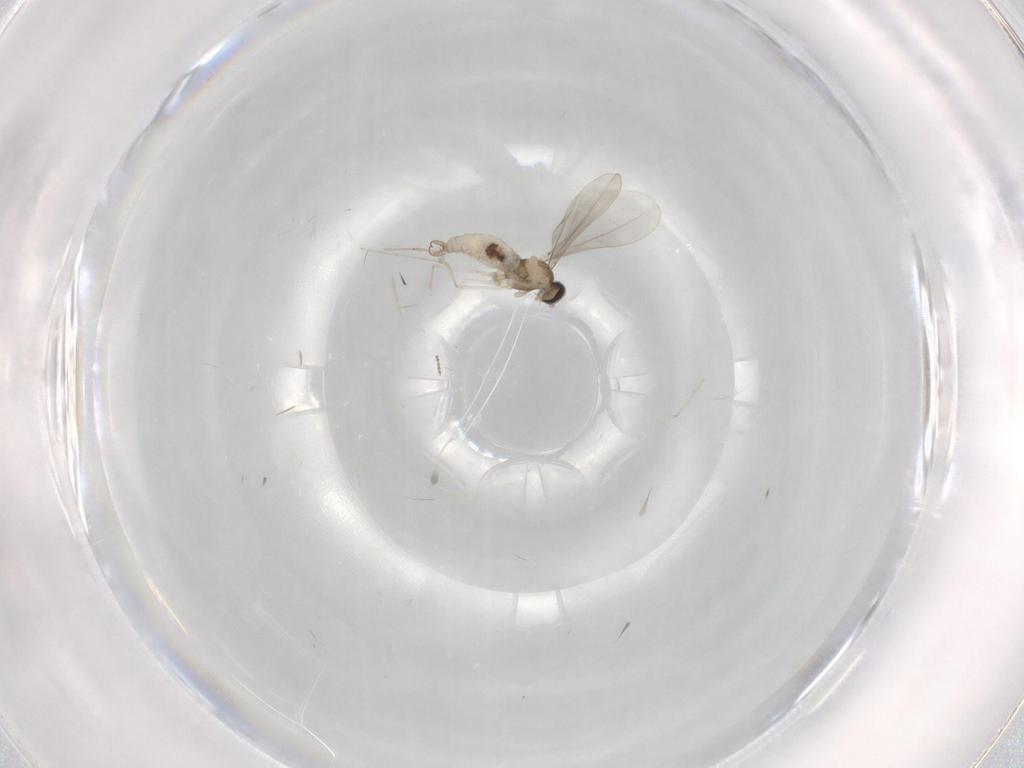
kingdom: Animalia
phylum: Arthropoda
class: Insecta
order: Diptera
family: Cecidomyiidae
